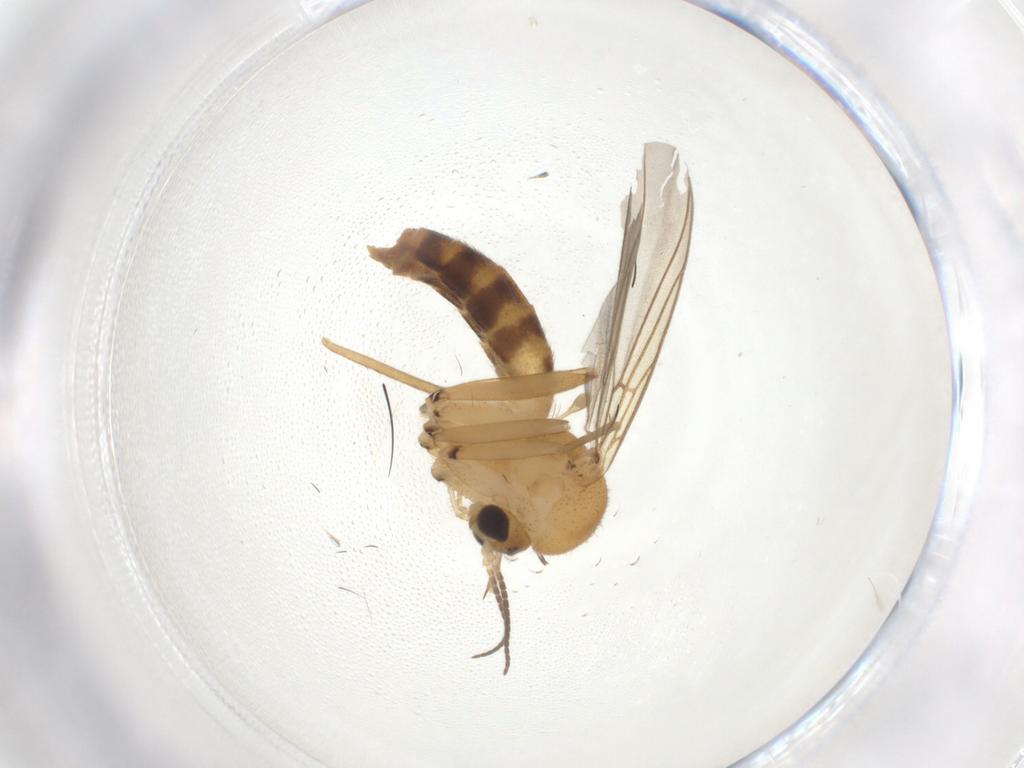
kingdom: Animalia
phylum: Arthropoda
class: Insecta
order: Diptera
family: Mycetophilidae
